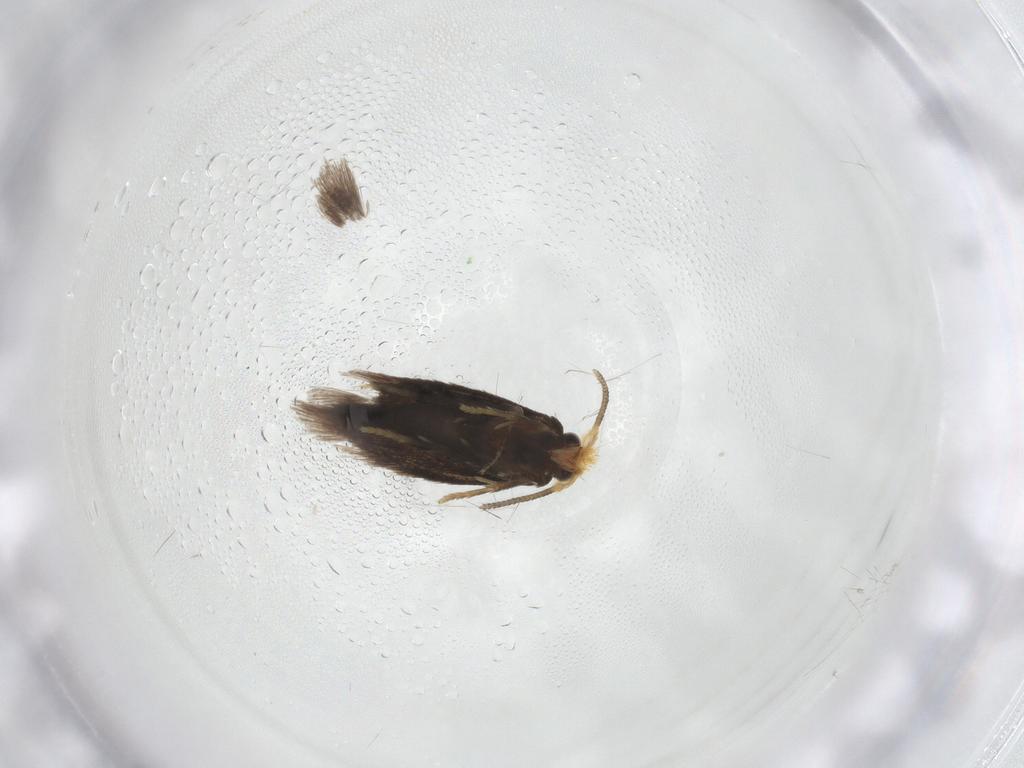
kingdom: Animalia
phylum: Arthropoda
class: Insecta
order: Lepidoptera
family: Nepticulidae
